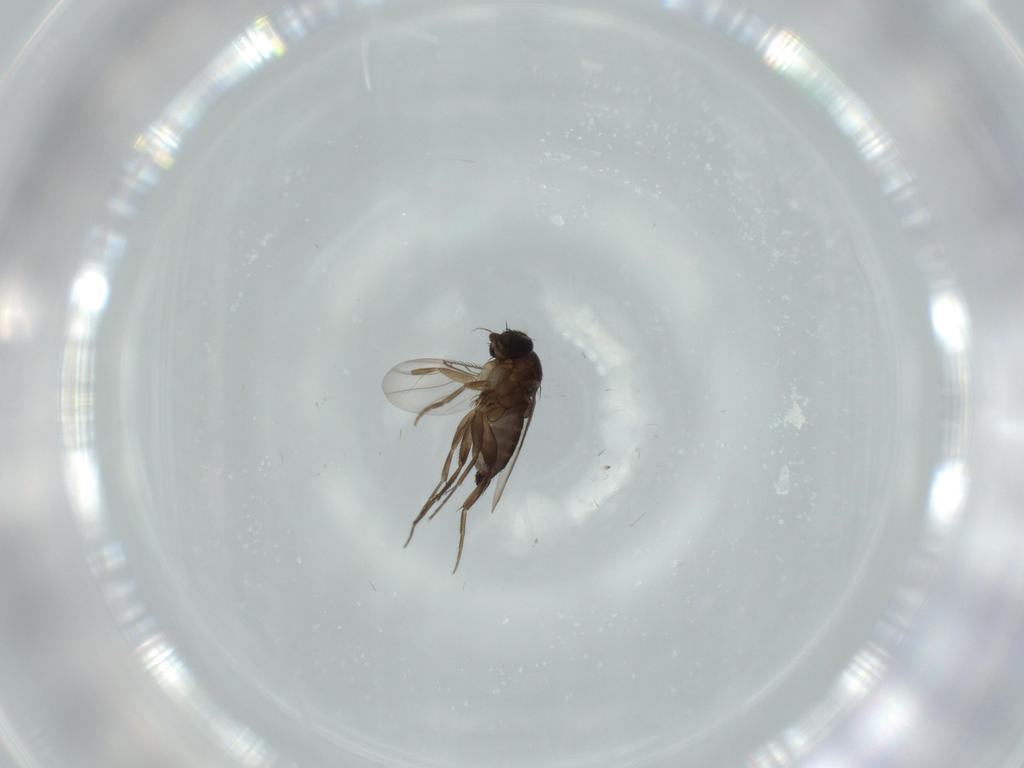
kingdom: Animalia
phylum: Arthropoda
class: Insecta
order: Diptera
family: Phoridae
